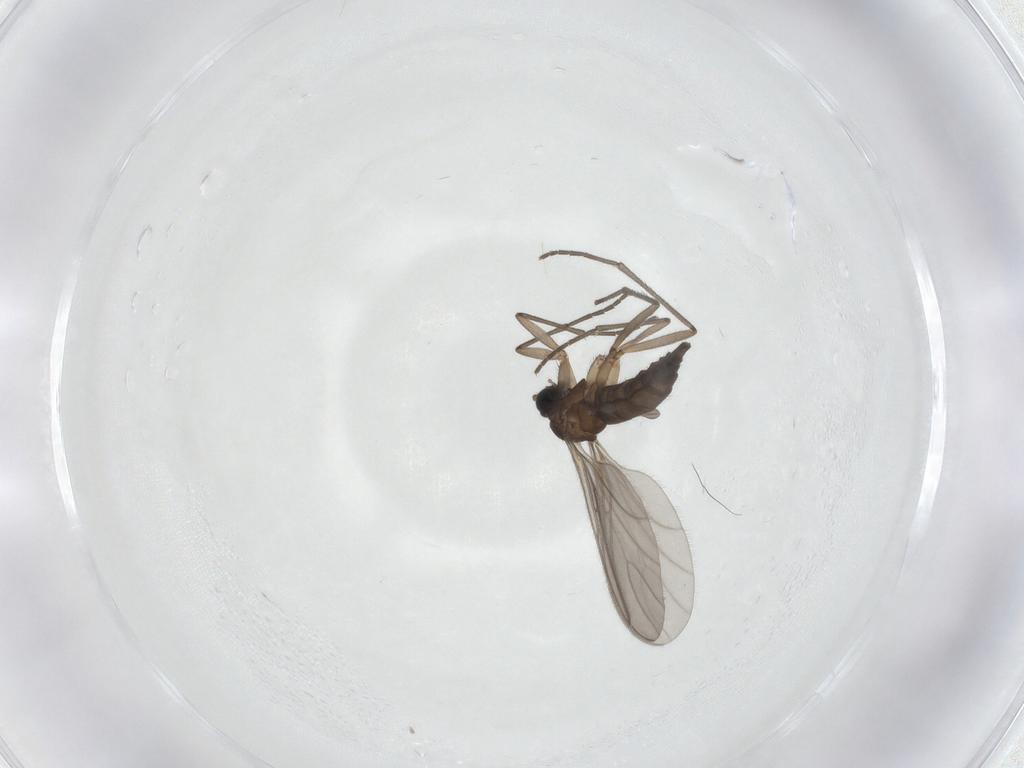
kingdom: Animalia
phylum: Arthropoda
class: Insecta
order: Diptera
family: Sciaridae
